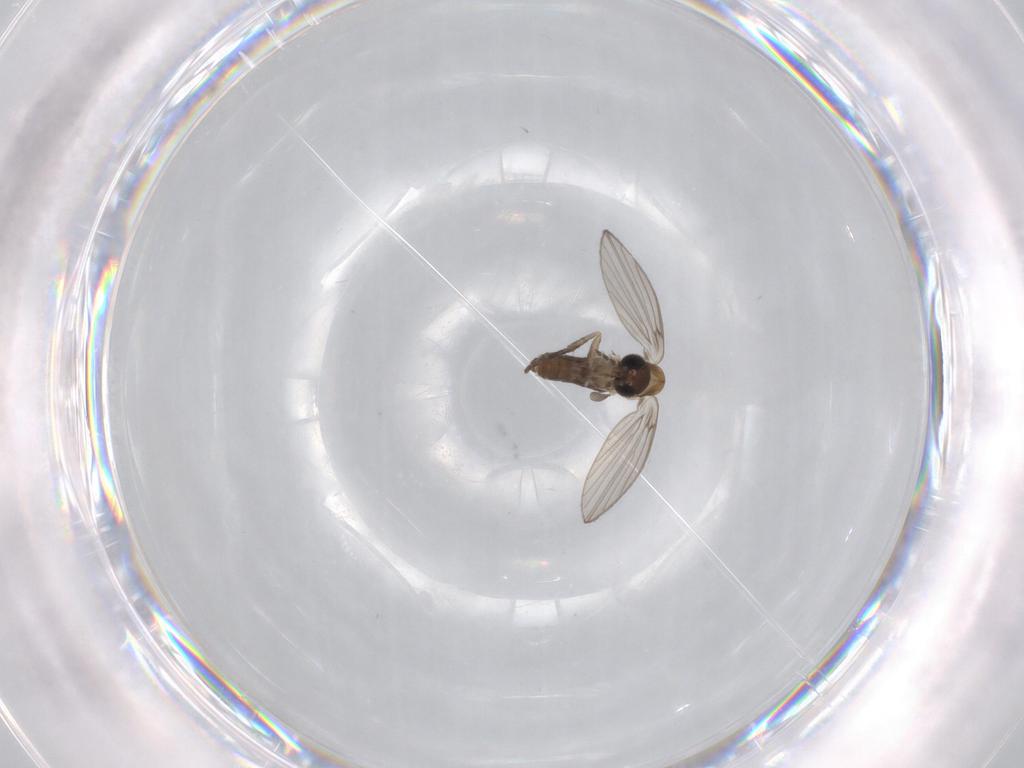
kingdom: Animalia
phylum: Arthropoda
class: Insecta
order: Diptera
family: Psychodidae
